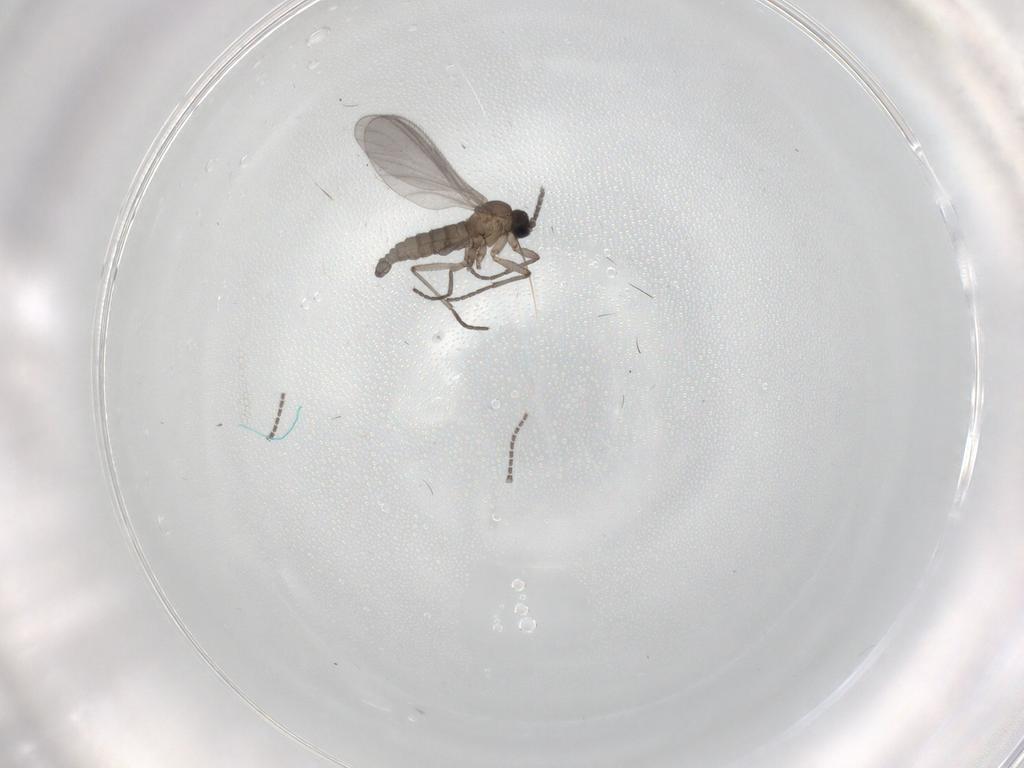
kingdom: Animalia
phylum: Arthropoda
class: Insecta
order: Diptera
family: Sciaridae
